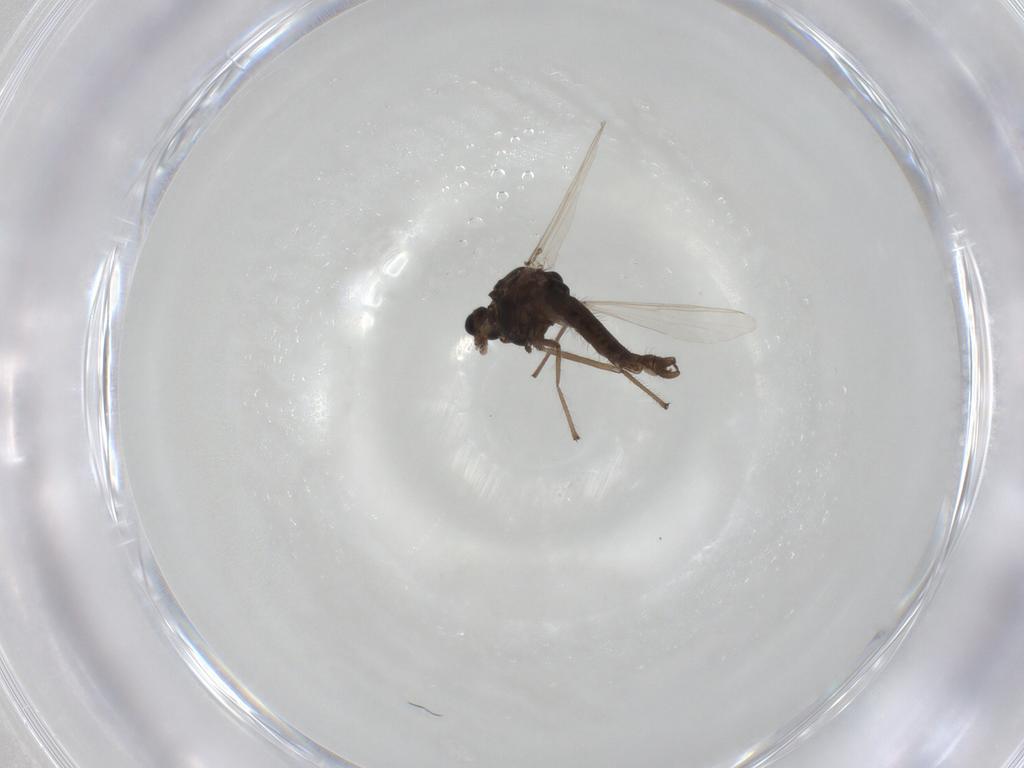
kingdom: Animalia
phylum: Arthropoda
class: Insecta
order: Diptera
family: Chironomidae
